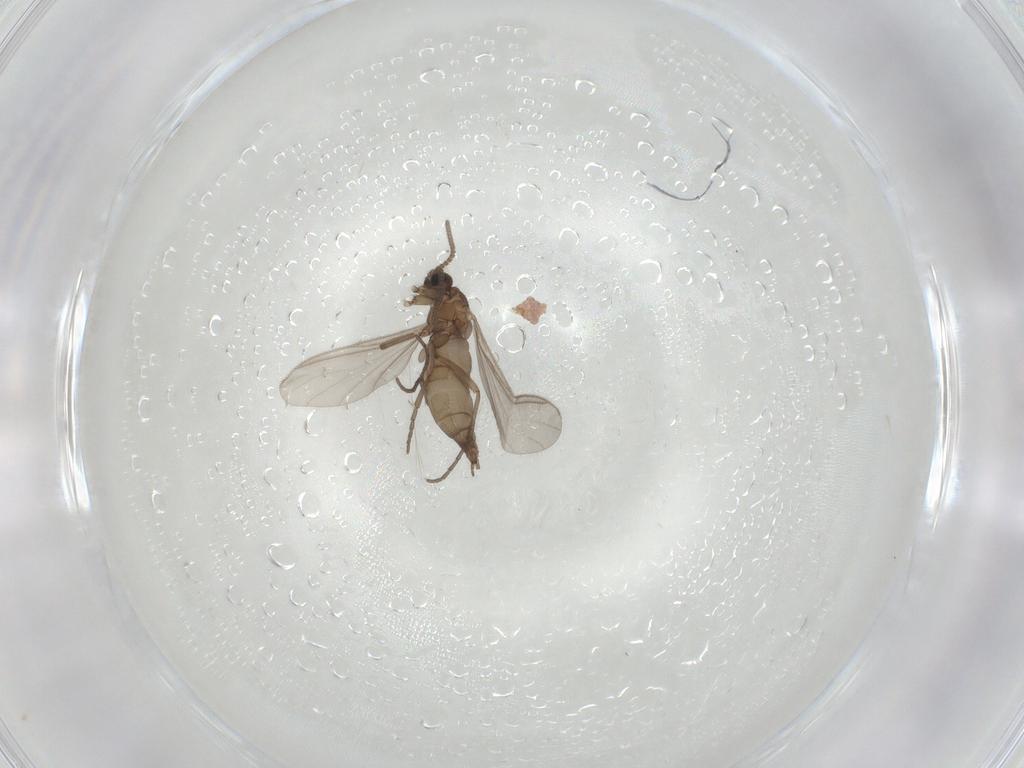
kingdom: Animalia
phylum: Arthropoda
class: Insecta
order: Diptera
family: Sciaridae
